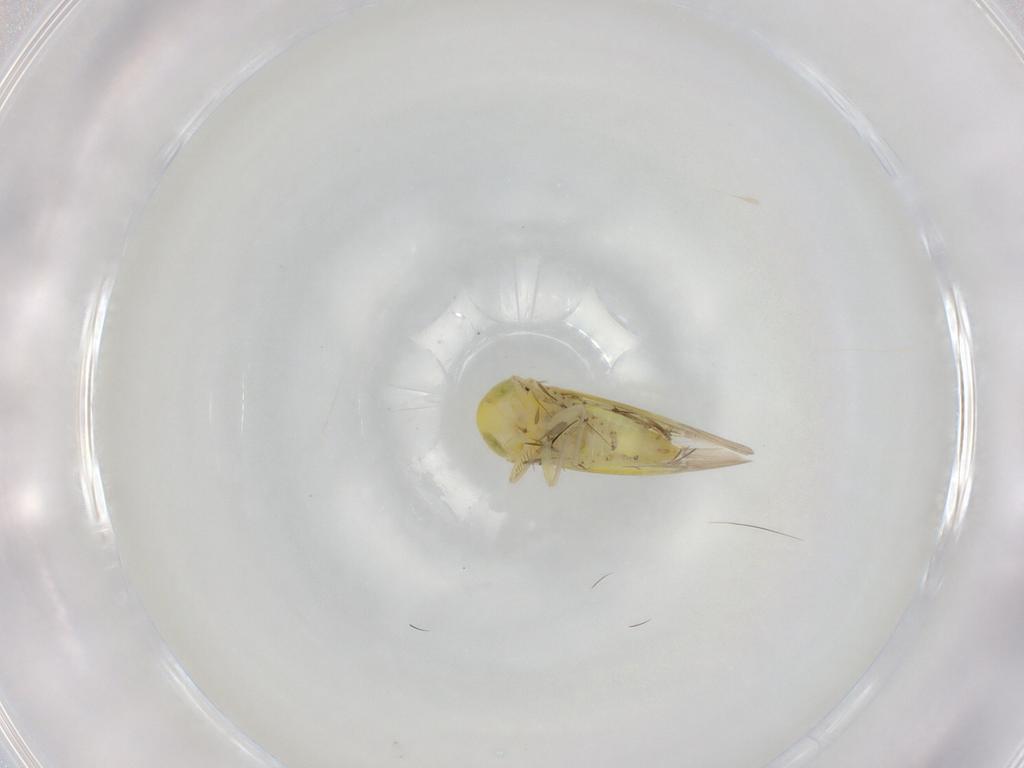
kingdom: Animalia
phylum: Arthropoda
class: Insecta
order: Hemiptera
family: Cicadellidae
